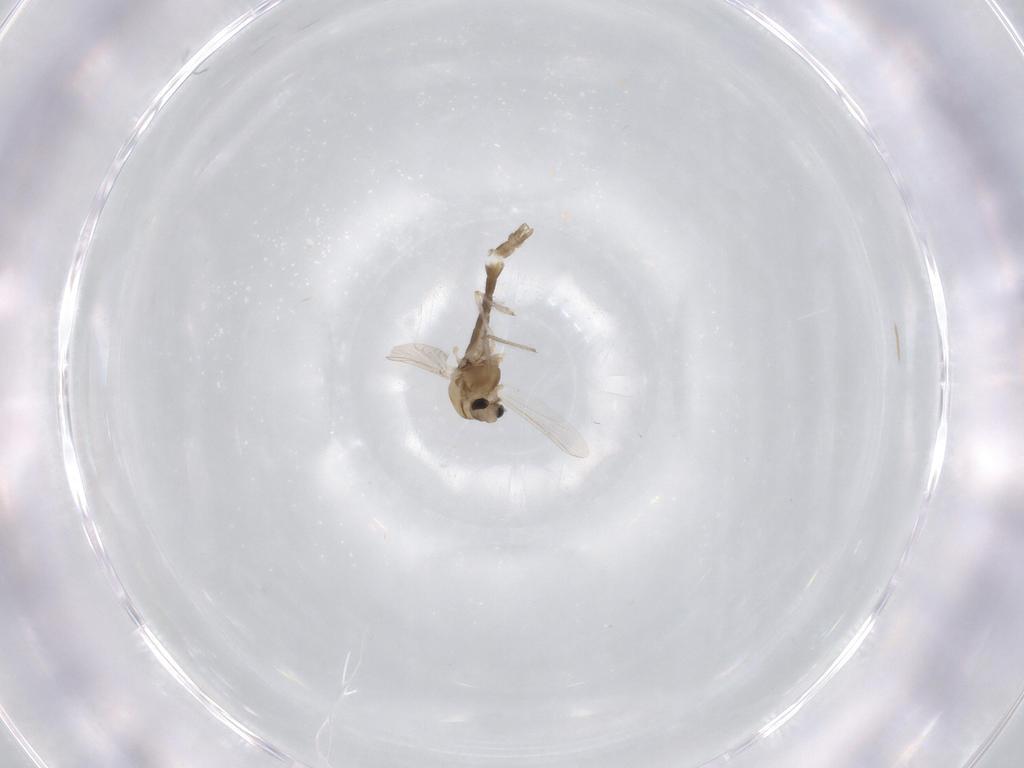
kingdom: Animalia
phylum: Arthropoda
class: Insecta
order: Diptera
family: Chironomidae
